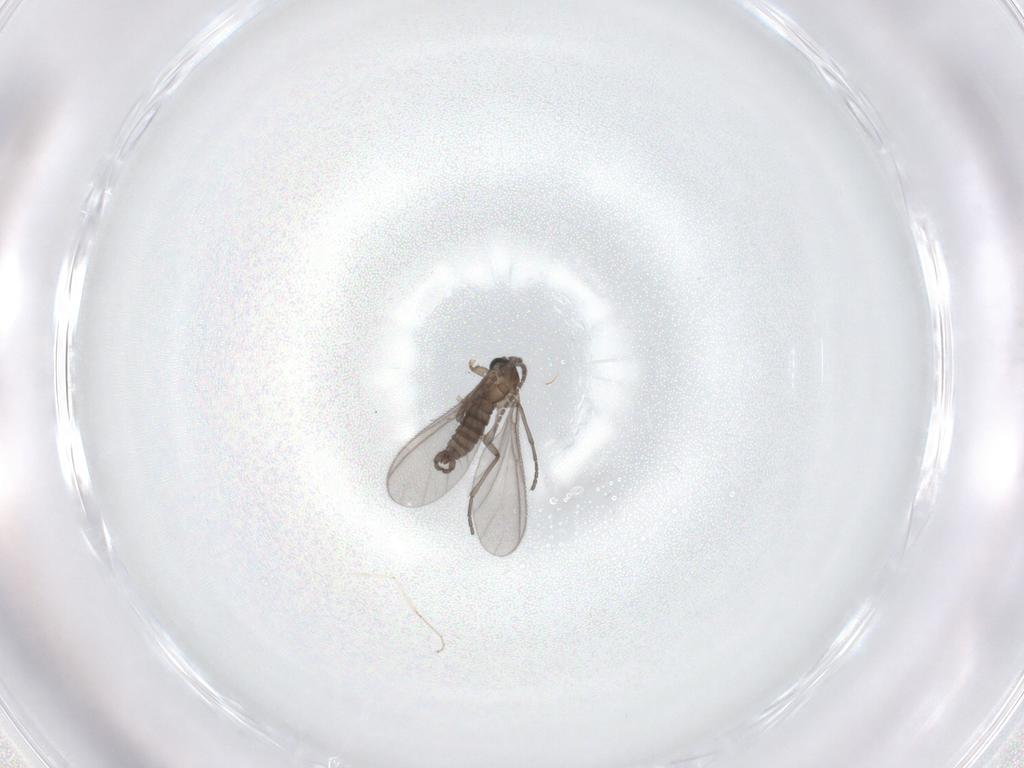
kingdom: Animalia
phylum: Arthropoda
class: Insecta
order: Diptera
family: Sciaridae
